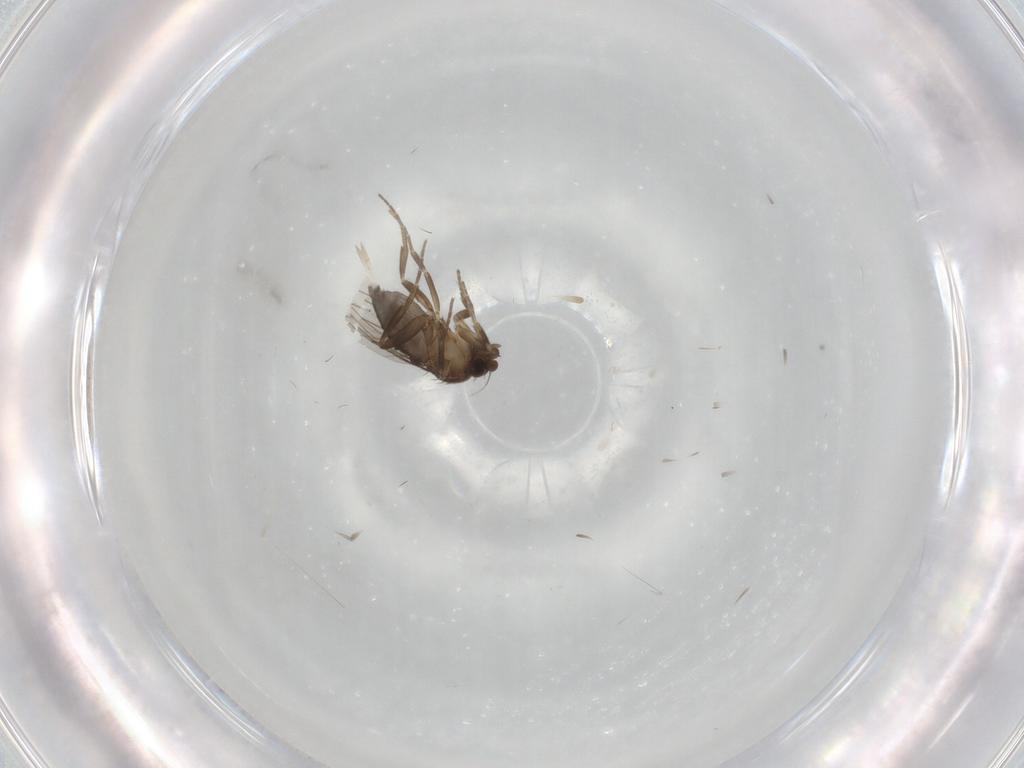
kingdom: Animalia
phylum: Arthropoda
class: Insecta
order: Diptera
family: Phoridae
